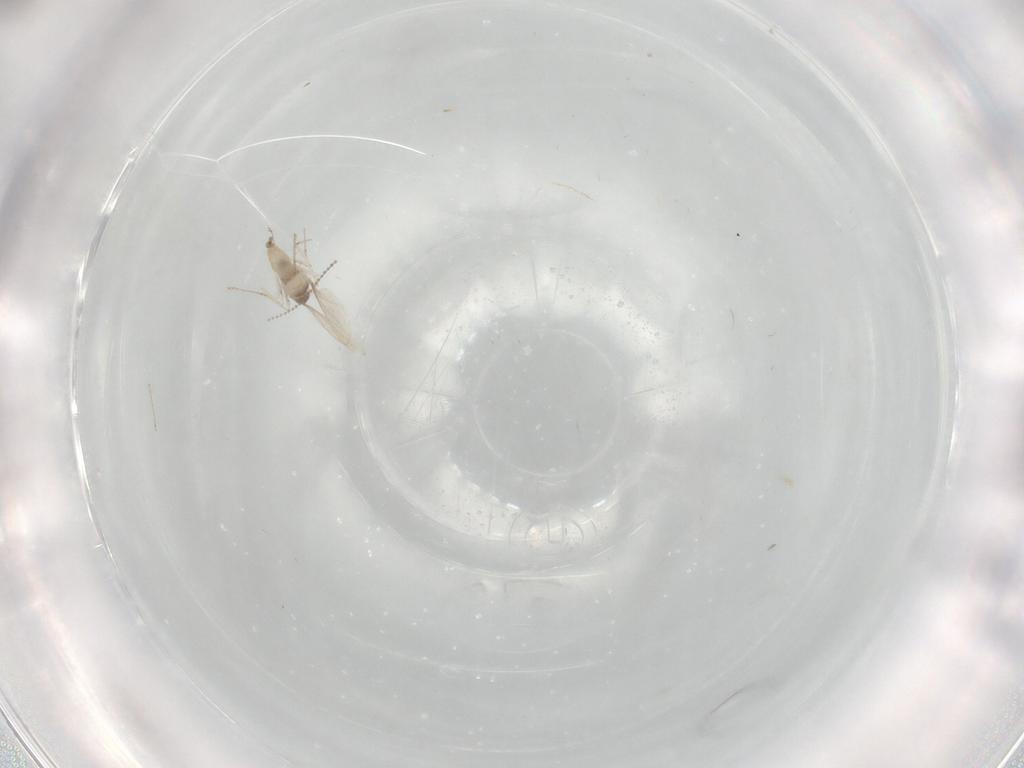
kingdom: Animalia
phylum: Arthropoda
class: Insecta
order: Diptera
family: Cecidomyiidae
